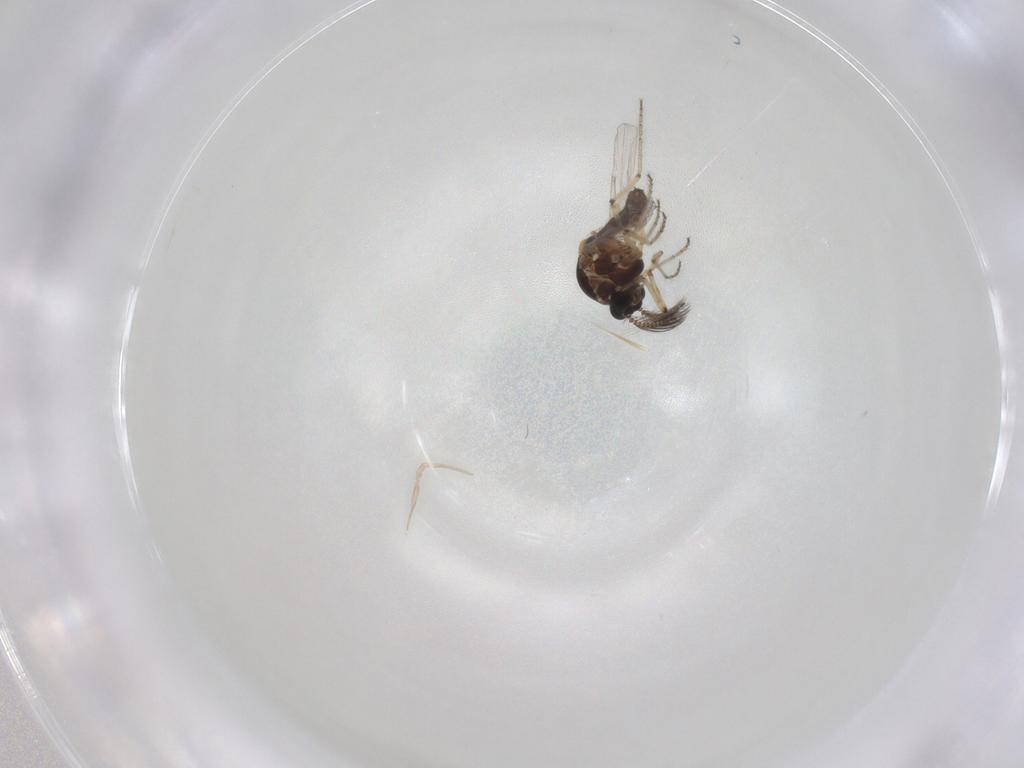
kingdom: Animalia
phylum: Arthropoda
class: Insecta
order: Diptera
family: Ceratopogonidae
